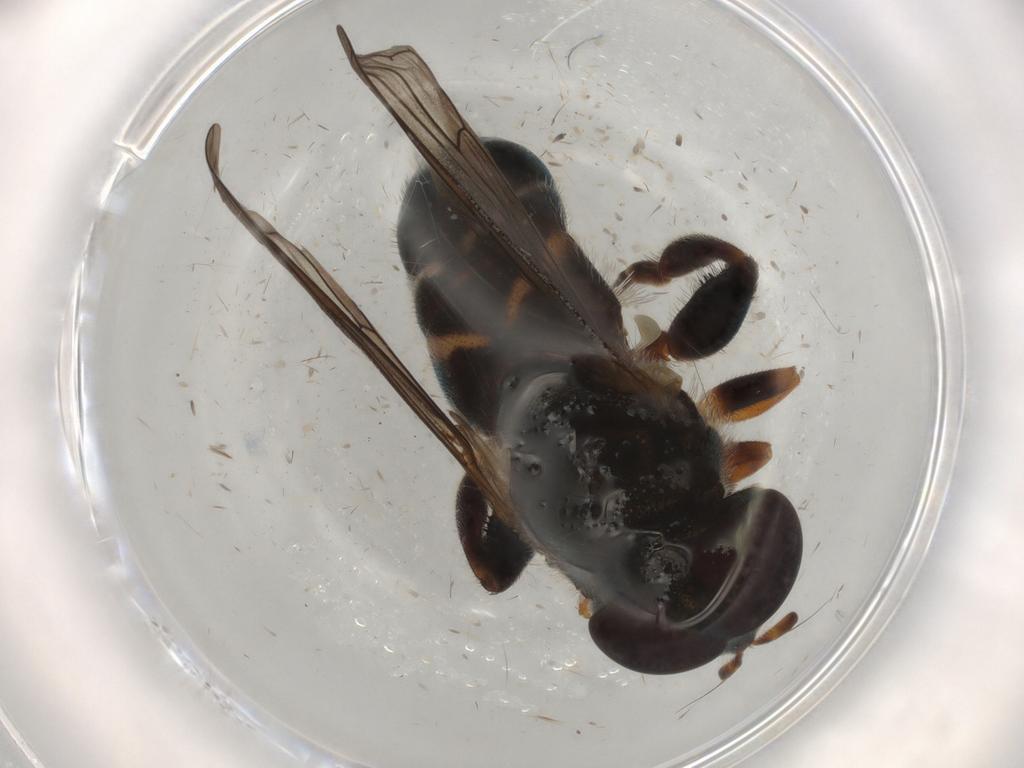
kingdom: Animalia
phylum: Arthropoda
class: Insecta
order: Diptera
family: Syrphidae
